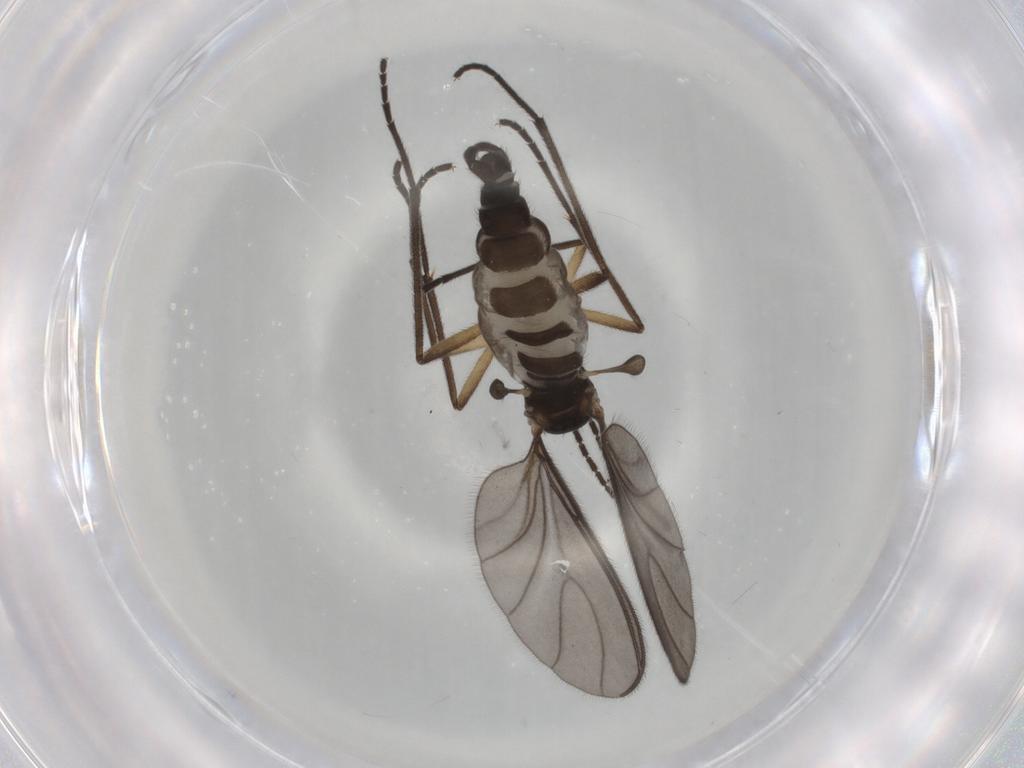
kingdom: Animalia
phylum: Arthropoda
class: Insecta
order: Diptera
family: Sciaridae
